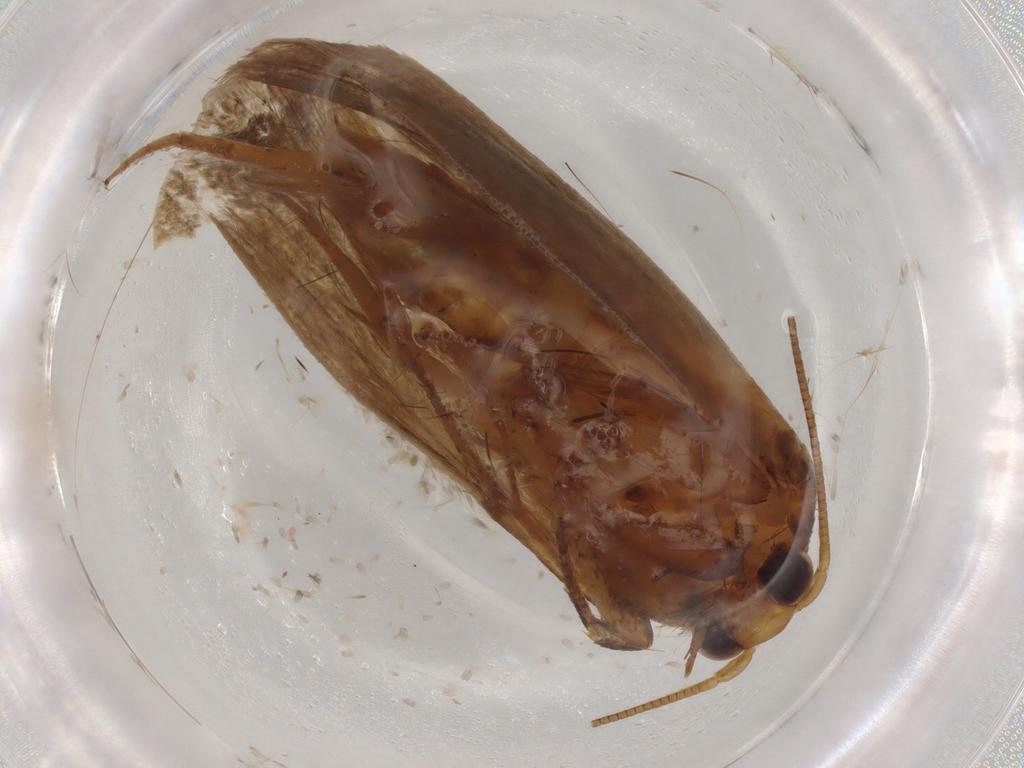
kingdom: Animalia
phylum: Arthropoda
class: Insecta
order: Lepidoptera
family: Tineidae
